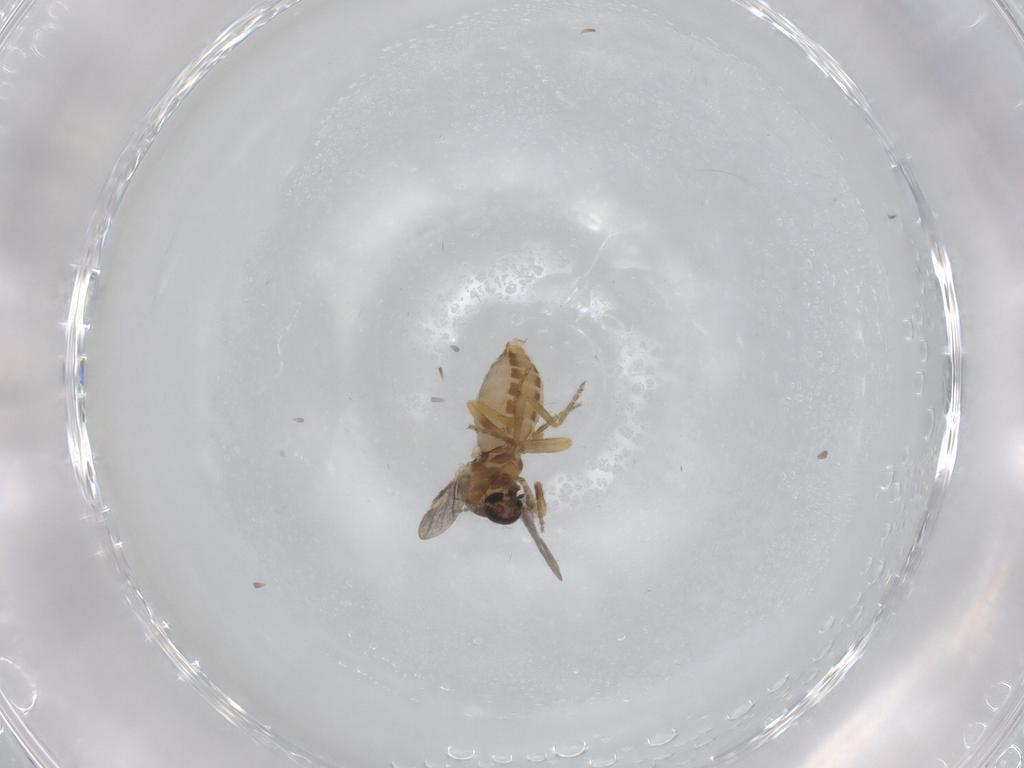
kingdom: Animalia
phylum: Arthropoda
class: Insecta
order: Diptera
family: Ceratopogonidae
